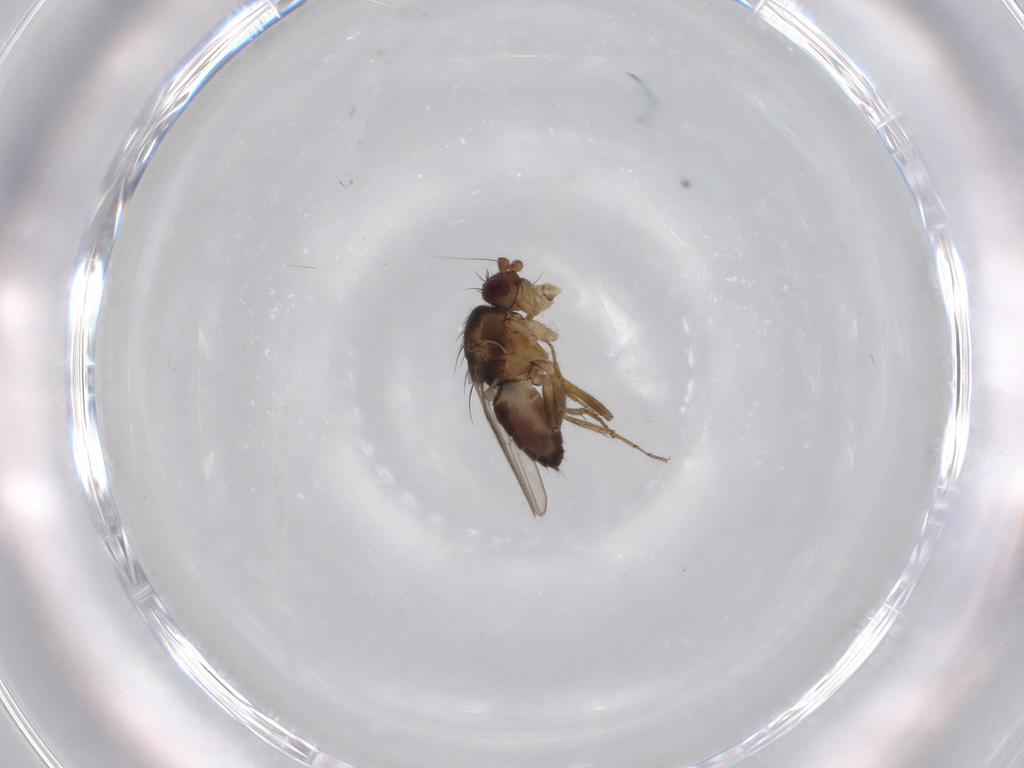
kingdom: Animalia
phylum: Arthropoda
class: Insecta
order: Diptera
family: Sphaeroceridae
